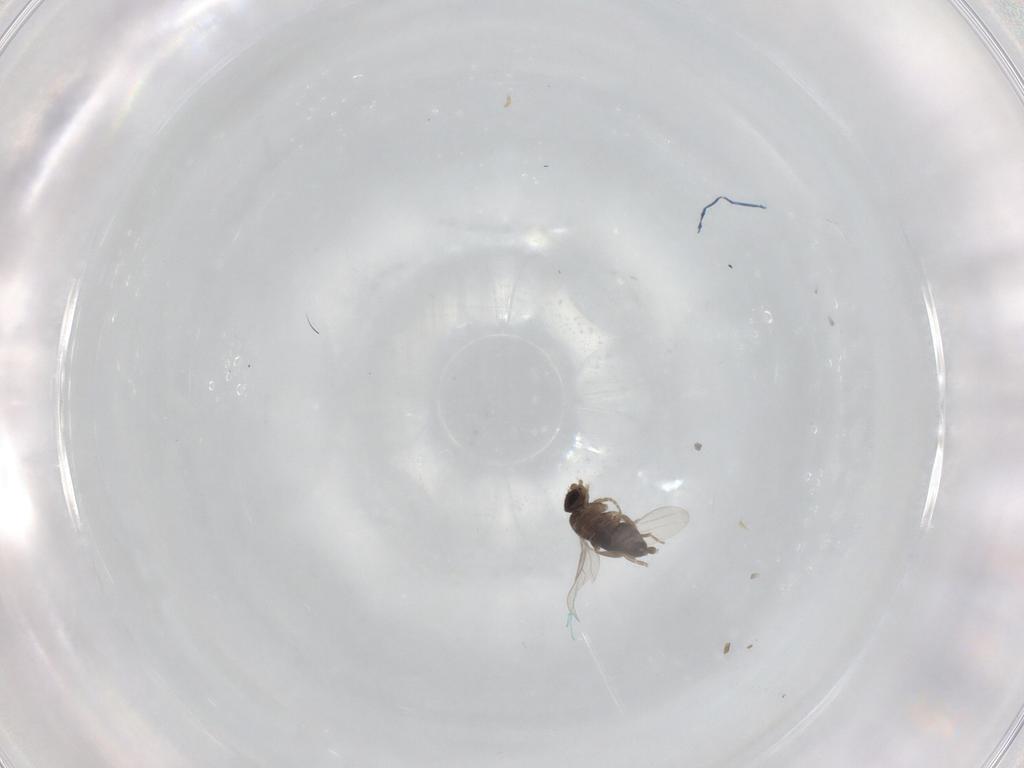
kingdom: Animalia
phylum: Arthropoda
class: Insecta
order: Diptera
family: Phoridae
